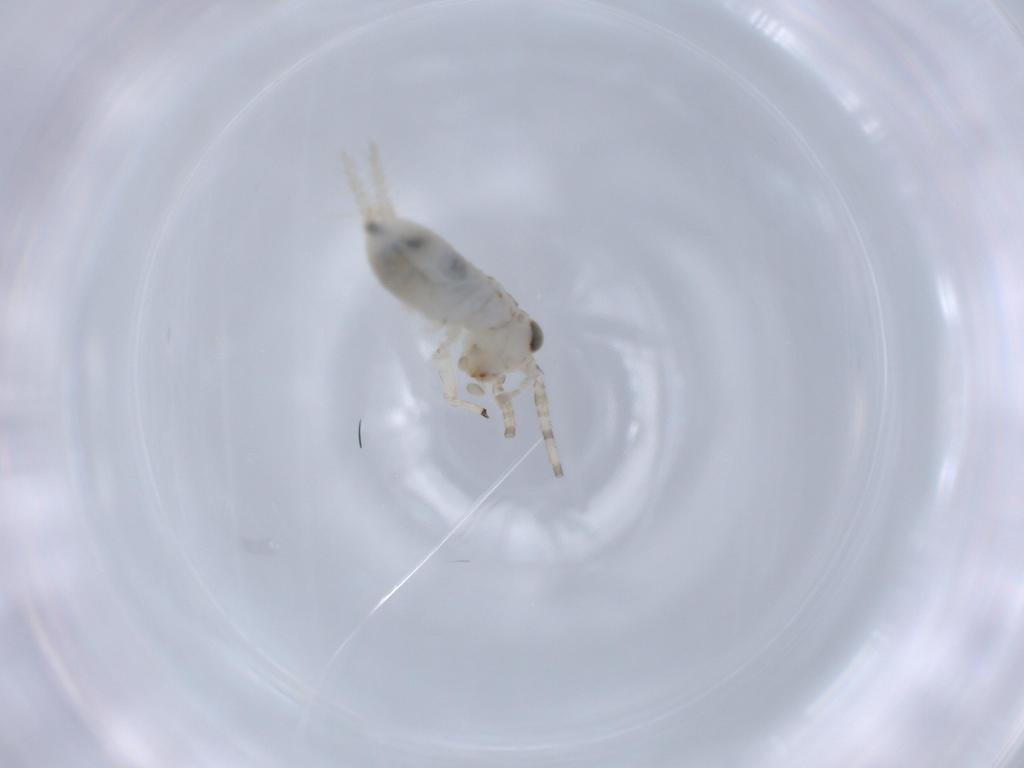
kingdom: Animalia
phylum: Arthropoda
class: Insecta
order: Orthoptera
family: Trigonidiidae
